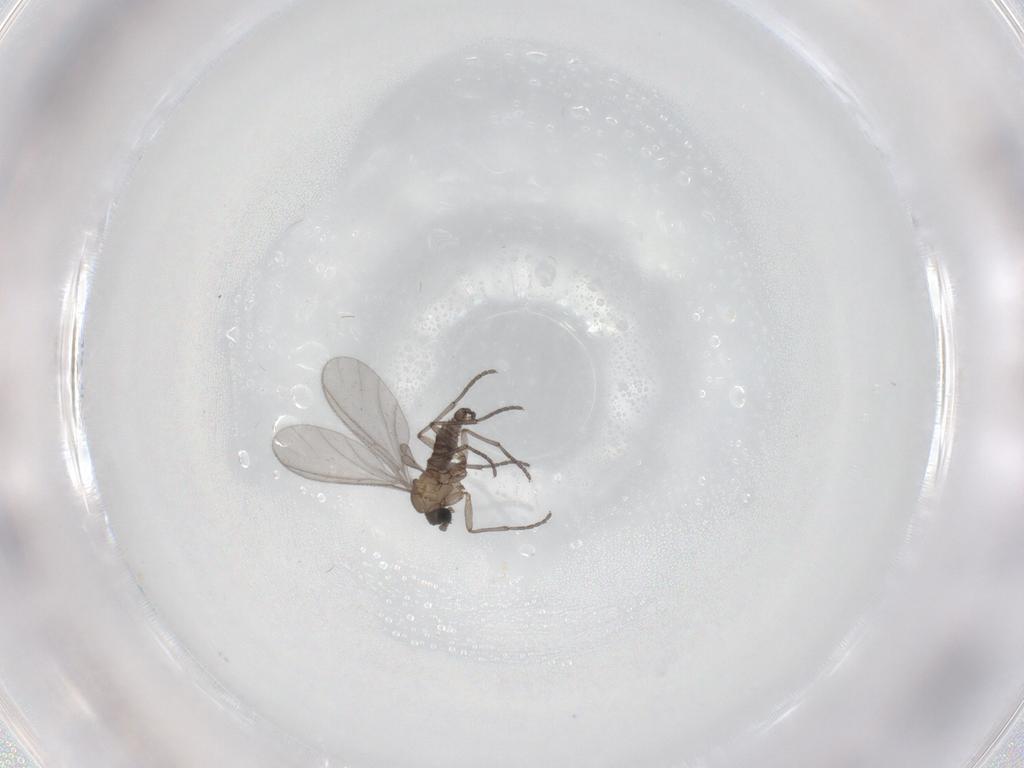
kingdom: Animalia
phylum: Arthropoda
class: Insecta
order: Diptera
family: Sciaridae
